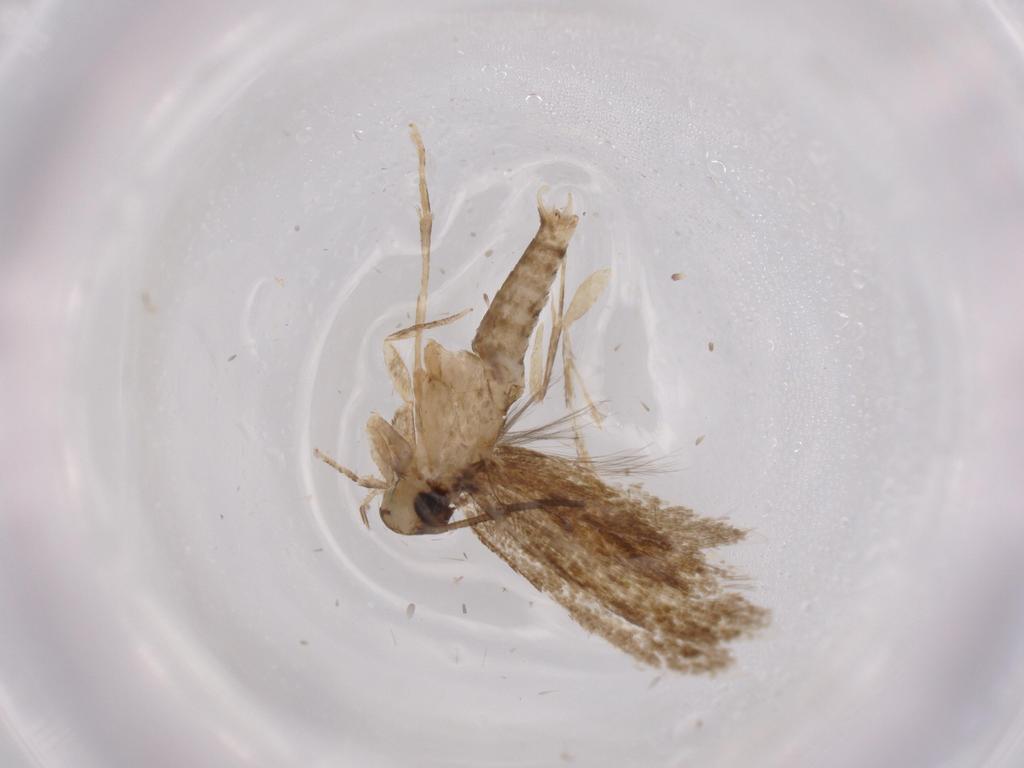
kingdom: Animalia
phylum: Arthropoda
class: Insecta
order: Lepidoptera
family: Tineidae
